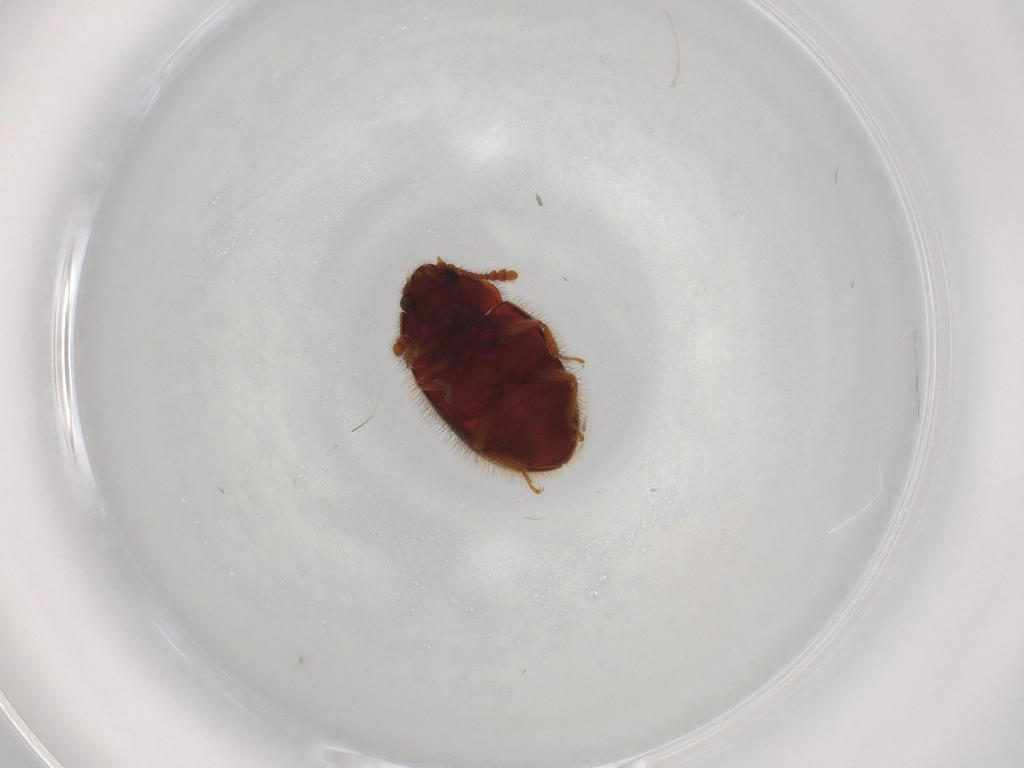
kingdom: Animalia
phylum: Arthropoda
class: Insecta
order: Coleoptera
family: Biphyllidae
